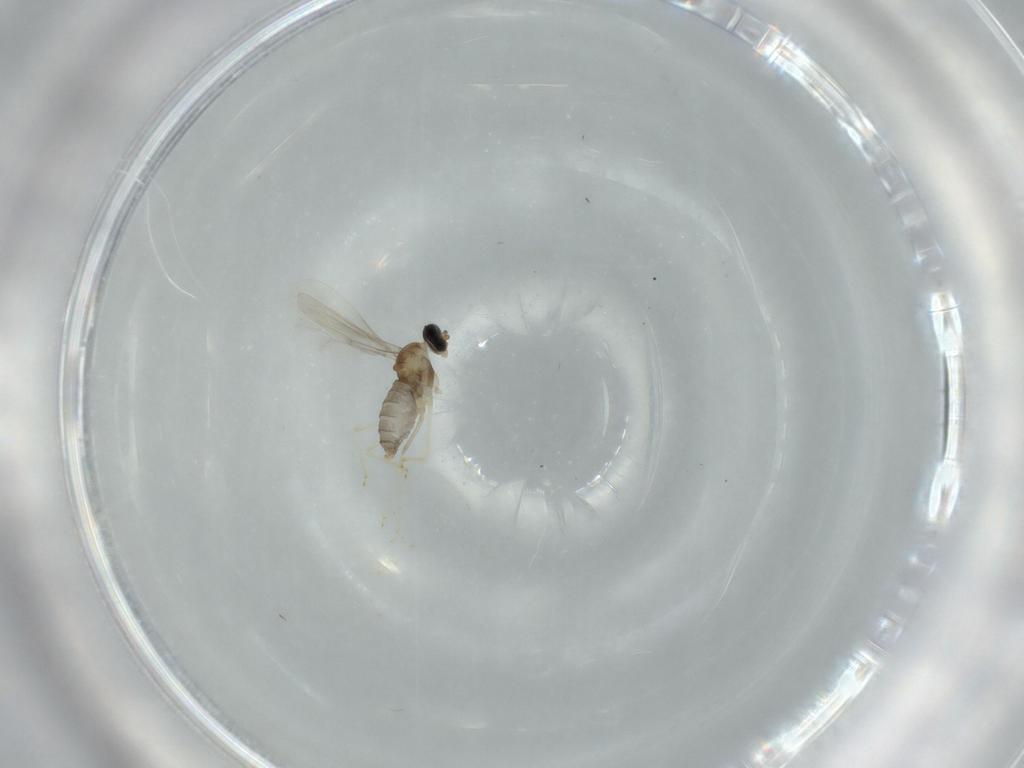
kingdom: Animalia
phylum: Arthropoda
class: Insecta
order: Diptera
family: Cecidomyiidae
